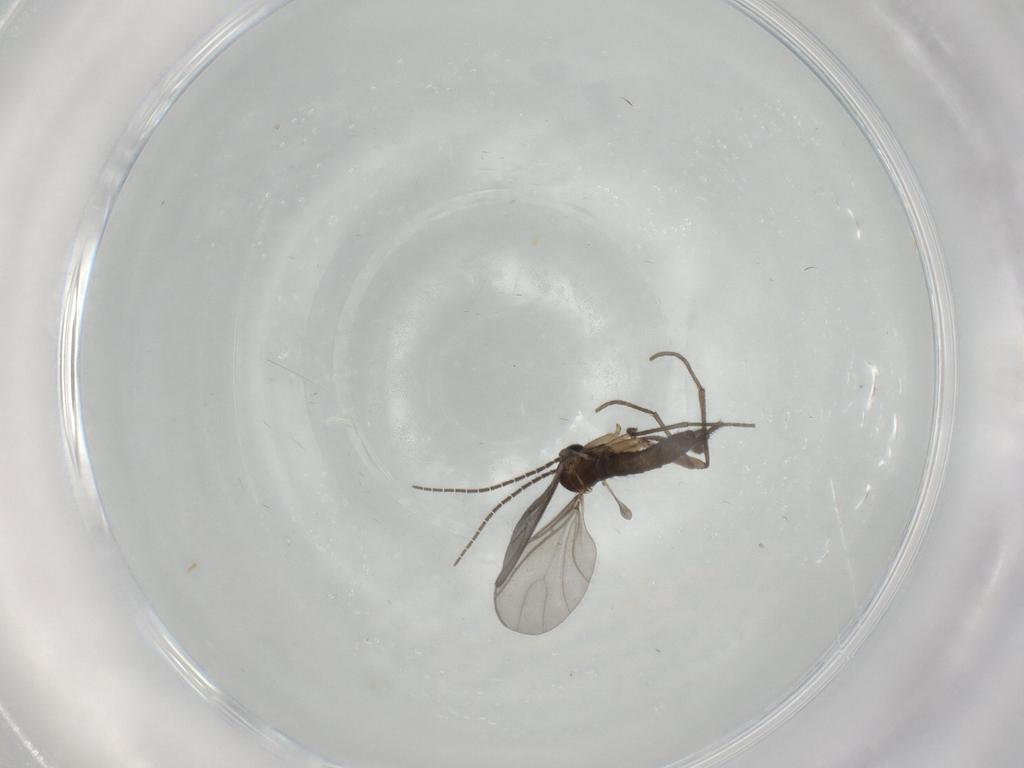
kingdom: Animalia
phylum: Arthropoda
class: Insecta
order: Diptera
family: Sciaridae
